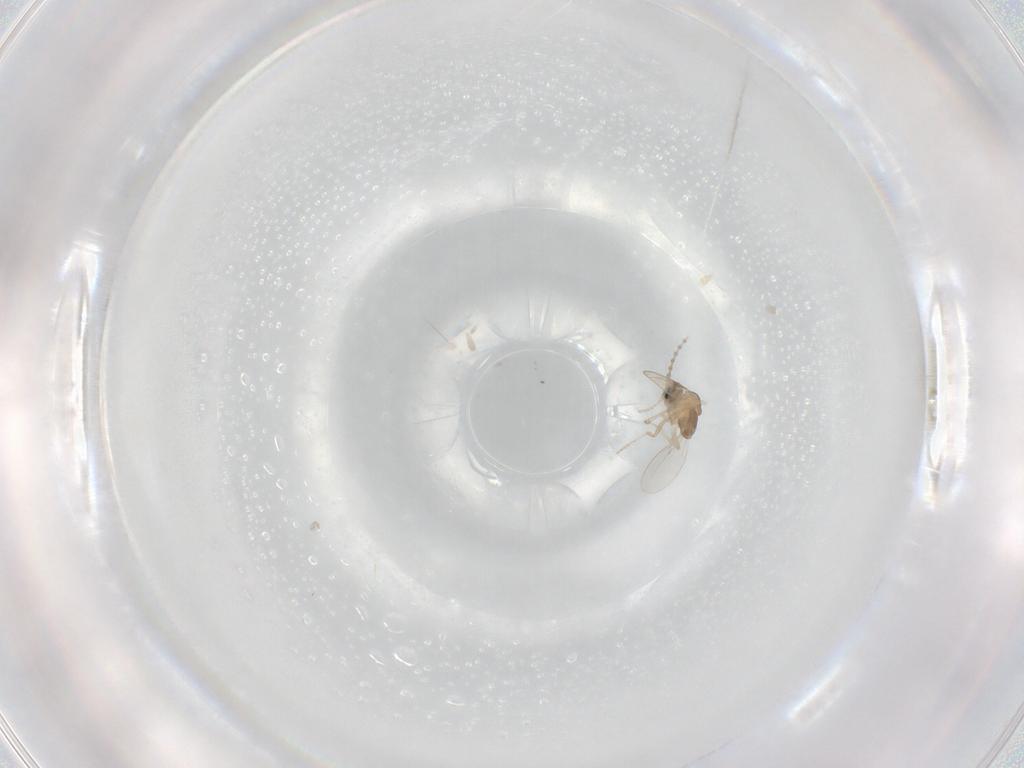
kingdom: Animalia
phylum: Arthropoda
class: Insecta
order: Diptera
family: Cecidomyiidae
